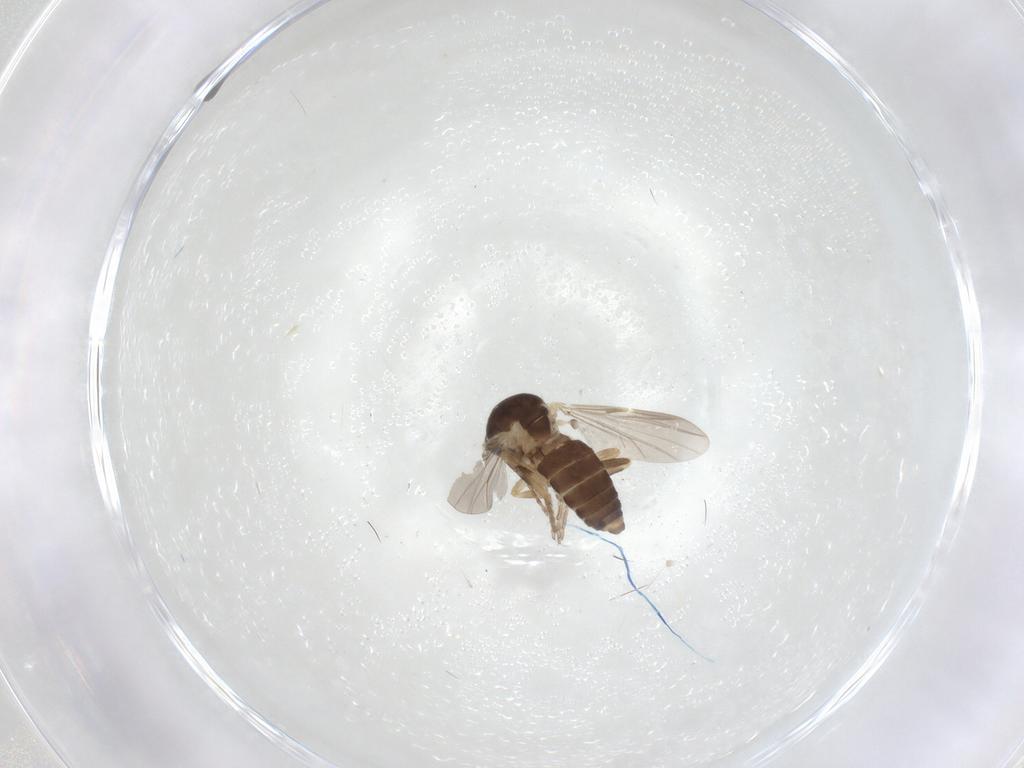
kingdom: Animalia
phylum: Arthropoda
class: Insecta
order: Diptera
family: Ceratopogonidae
